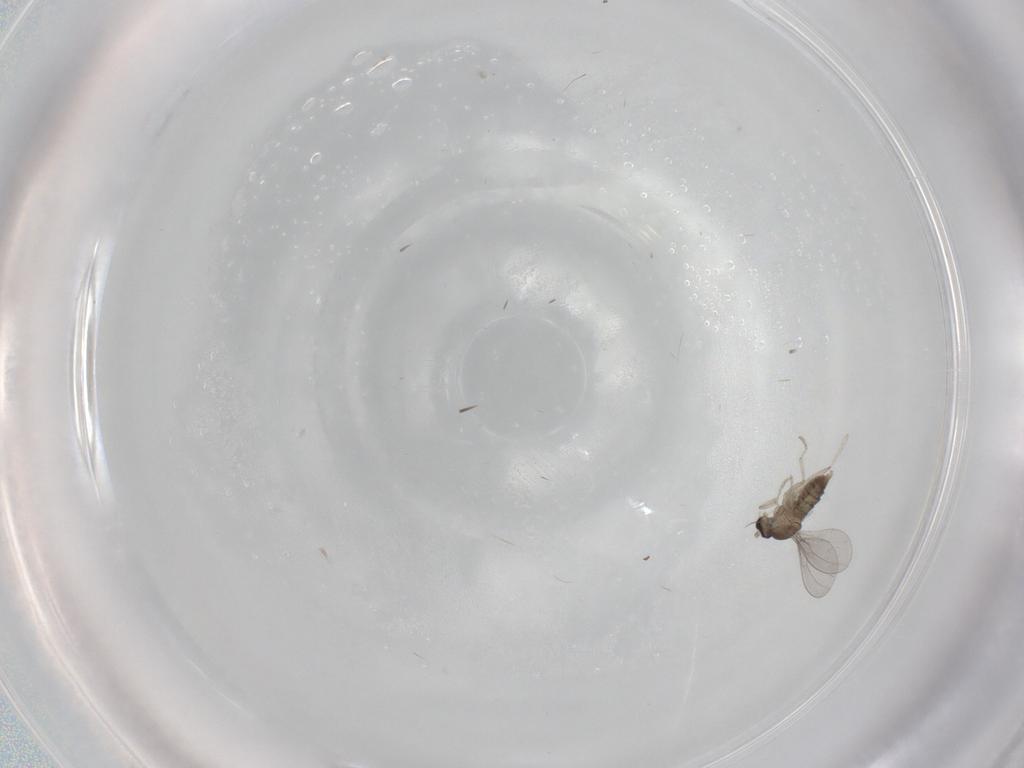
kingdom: Animalia
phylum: Arthropoda
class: Insecta
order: Diptera
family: Cecidomyiidae
